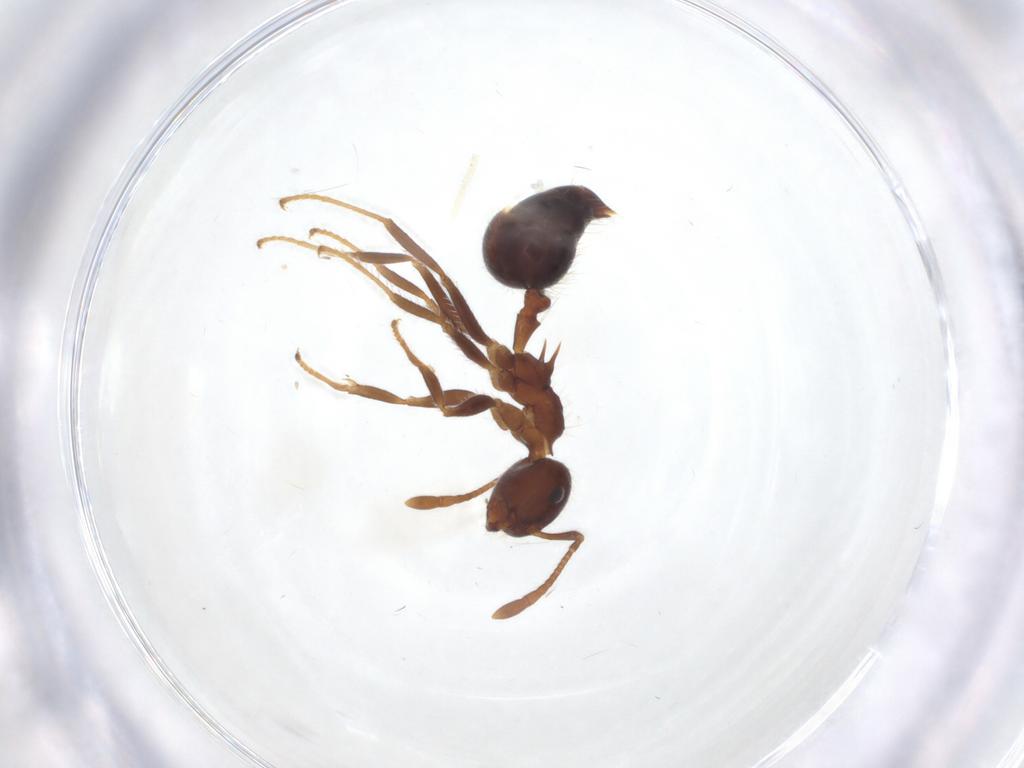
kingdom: Animalia
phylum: Arthropoda
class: Insecta
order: Hymenoptera
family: Formicidae
